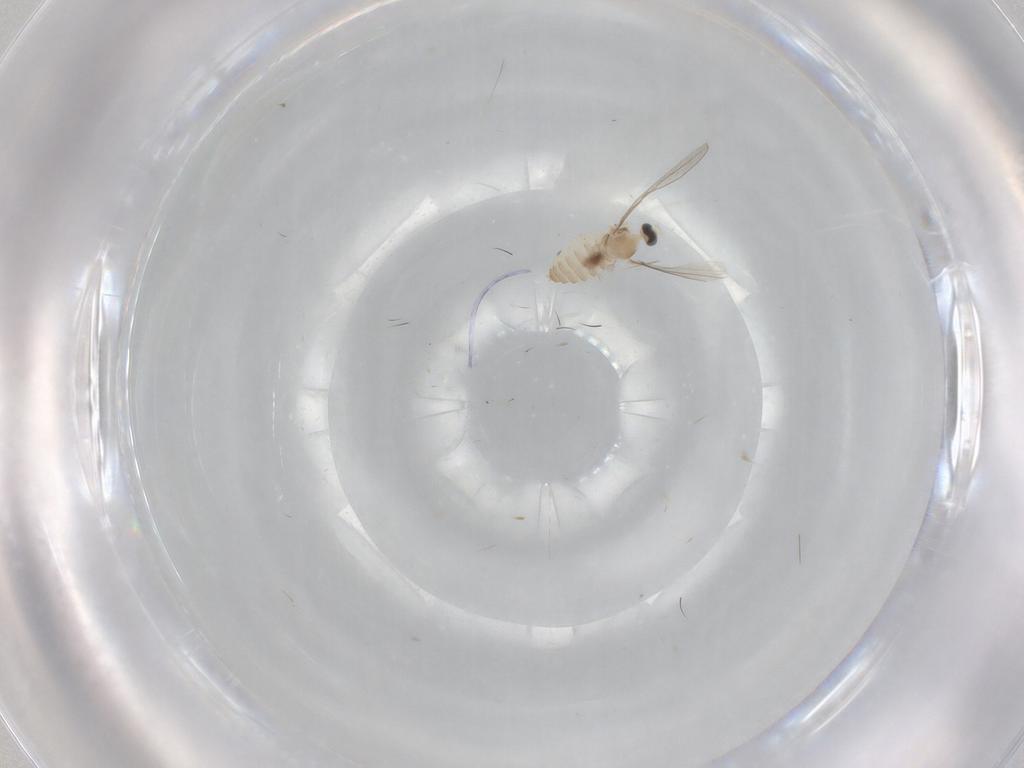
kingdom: Animalia
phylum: Arthropoda
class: Insecta
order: Diptera
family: Cecidomyiidae
